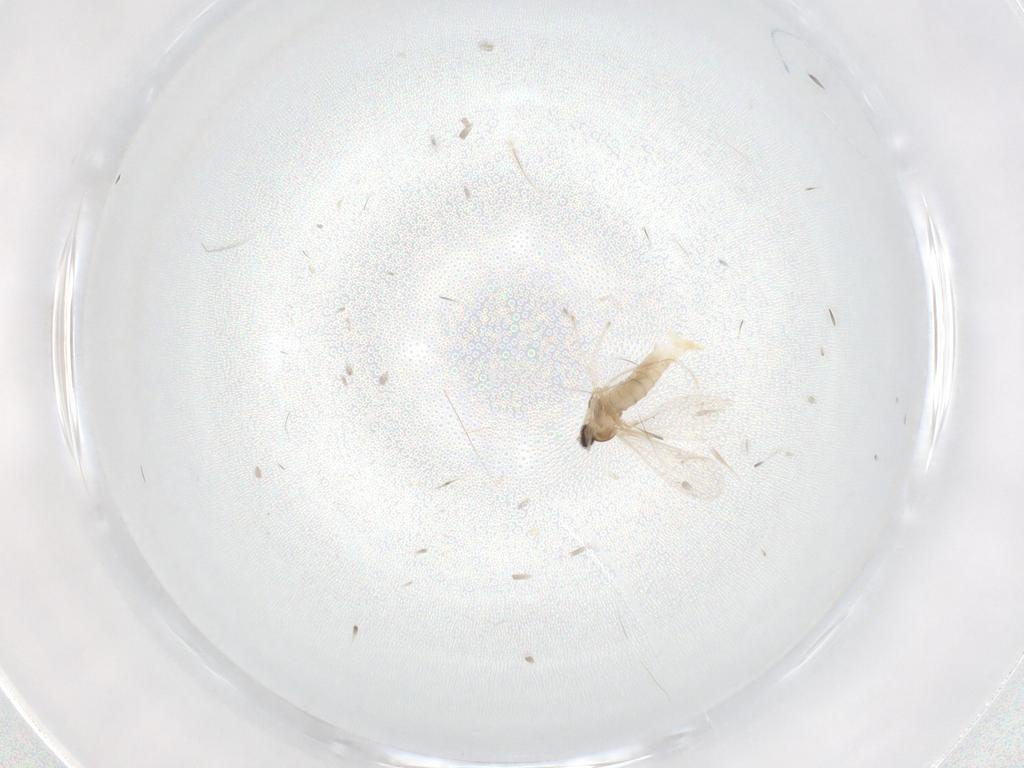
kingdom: Animalia
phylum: Arthropoda
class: Insecta
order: Diptera
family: Cecidomyiidae
